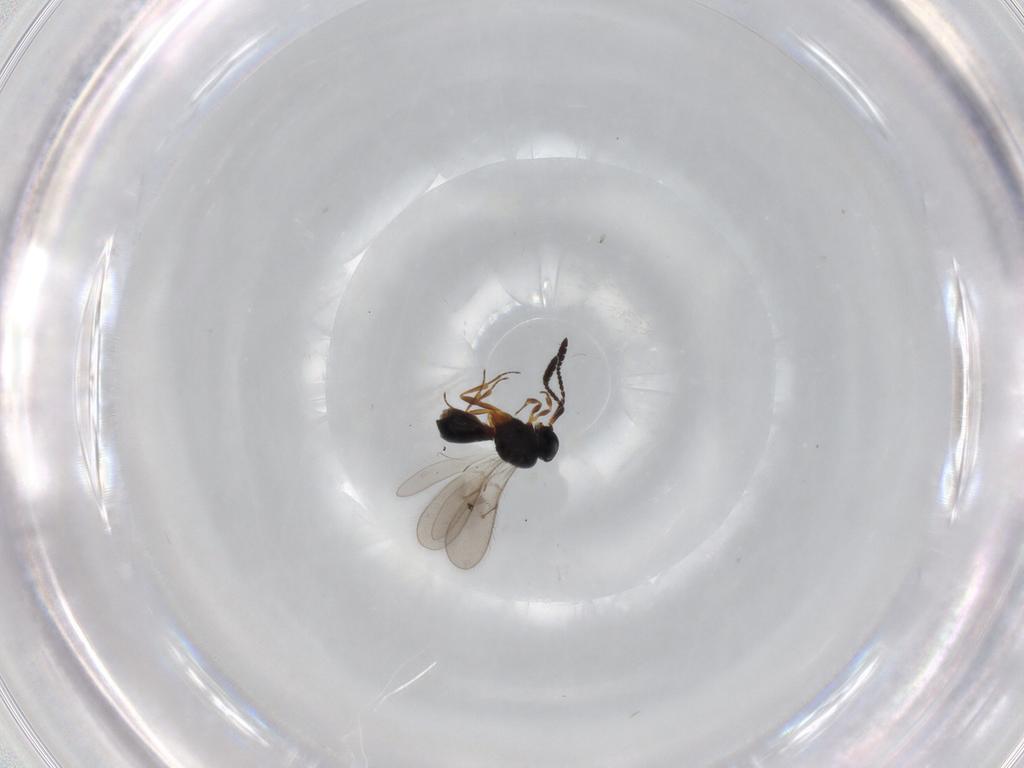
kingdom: Animalia
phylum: Arthropoda
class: Insecta
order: Hymenoptera
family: Scelionidae
